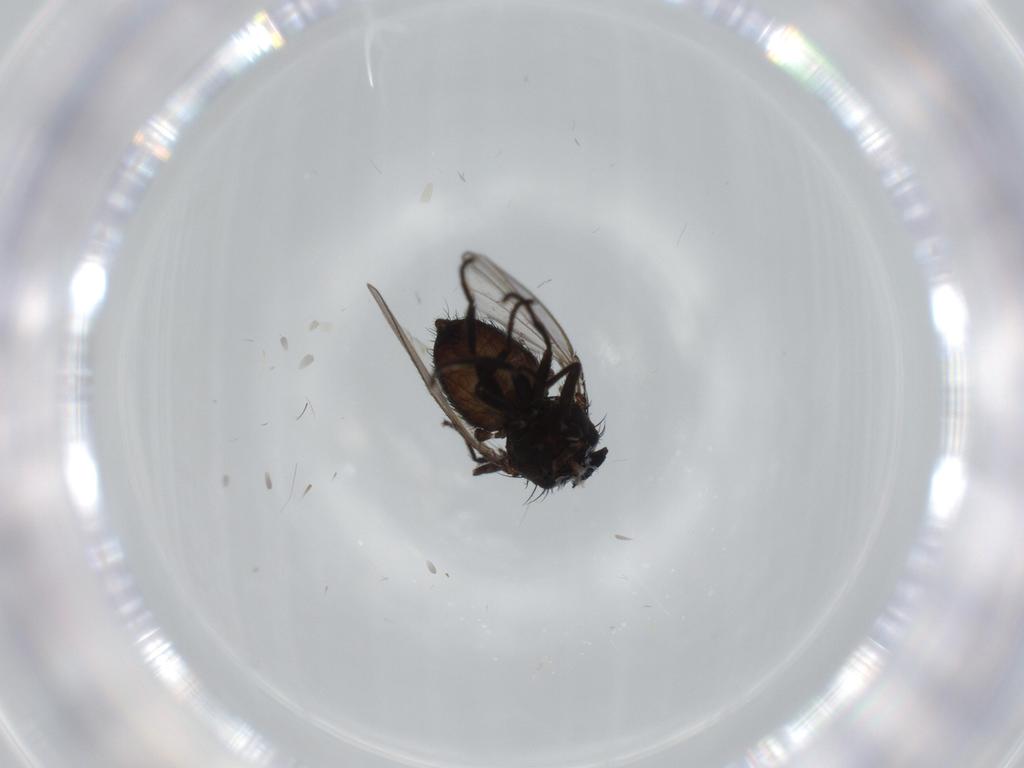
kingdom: Animalia
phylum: Arthropoda
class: Insecta
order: Diptera
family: Milichiidae
